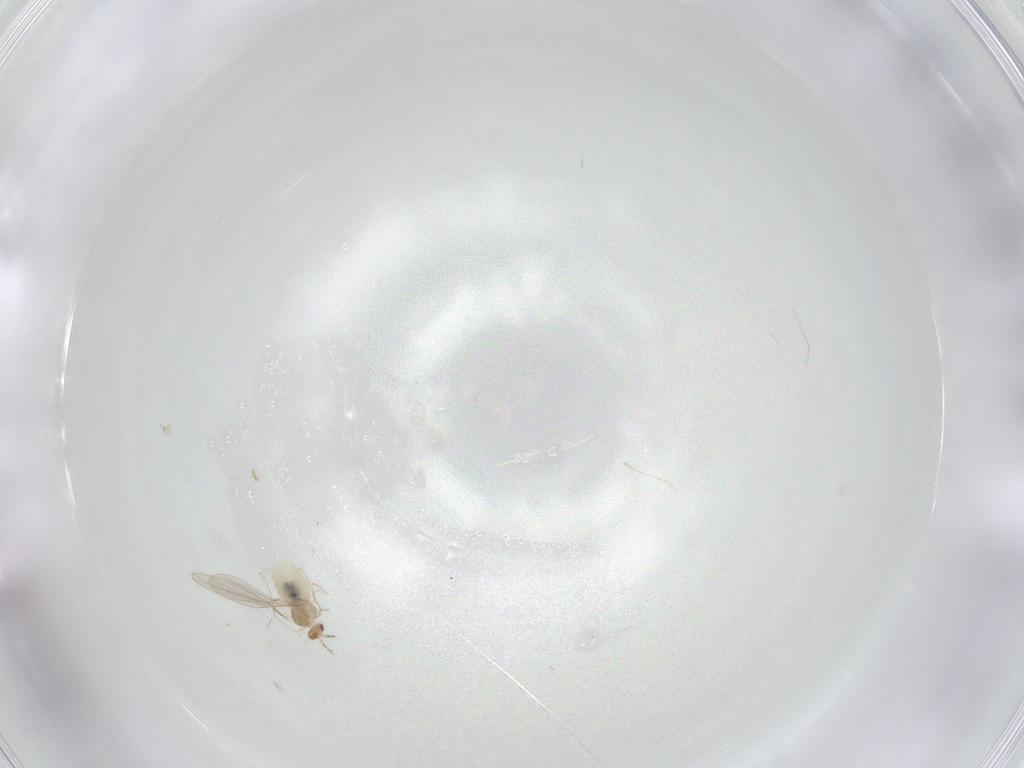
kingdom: Animalia
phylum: Arthropoda
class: Insecta
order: Diptera
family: Cecidomyiidae
